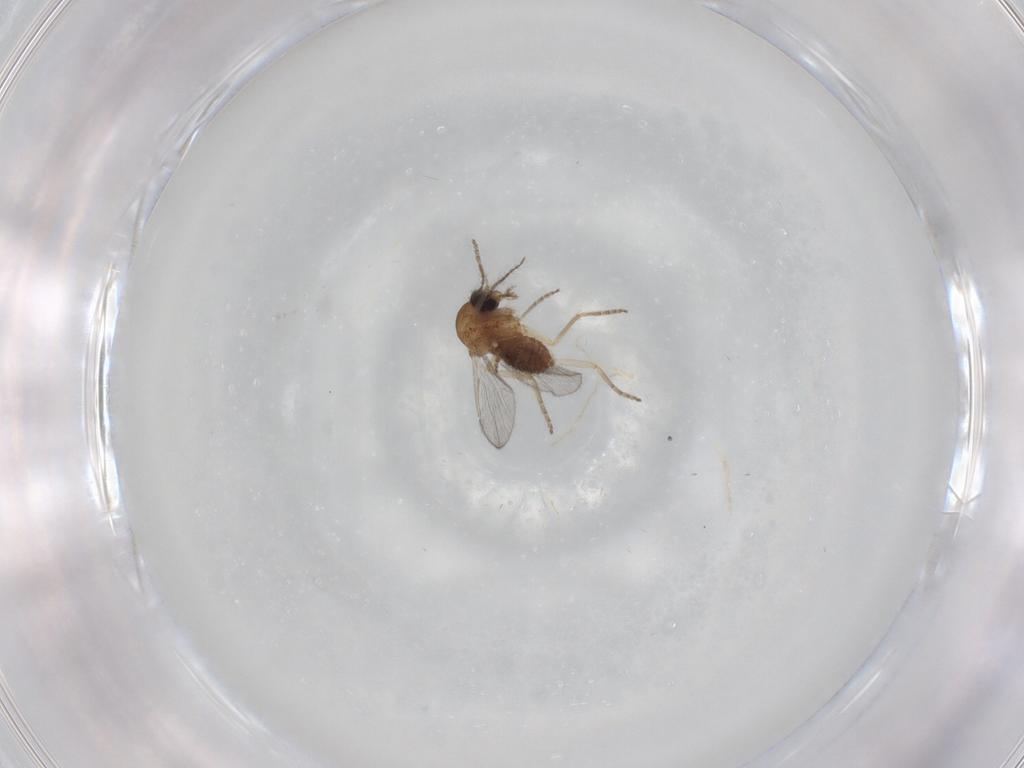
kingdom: Animalia
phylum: Arthropoda
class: Insecta
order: Diptera
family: Ceratopogonidae
